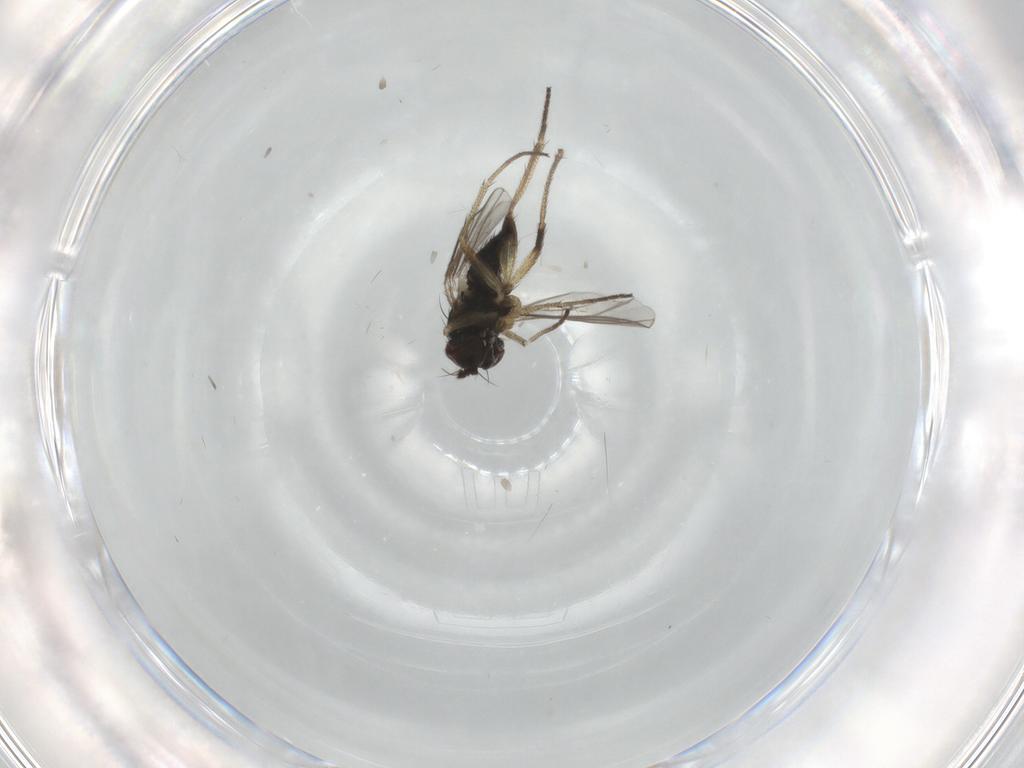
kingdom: Animalia
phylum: Arthropoda
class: Insecta
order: Diptera
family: Dolichopodidae
